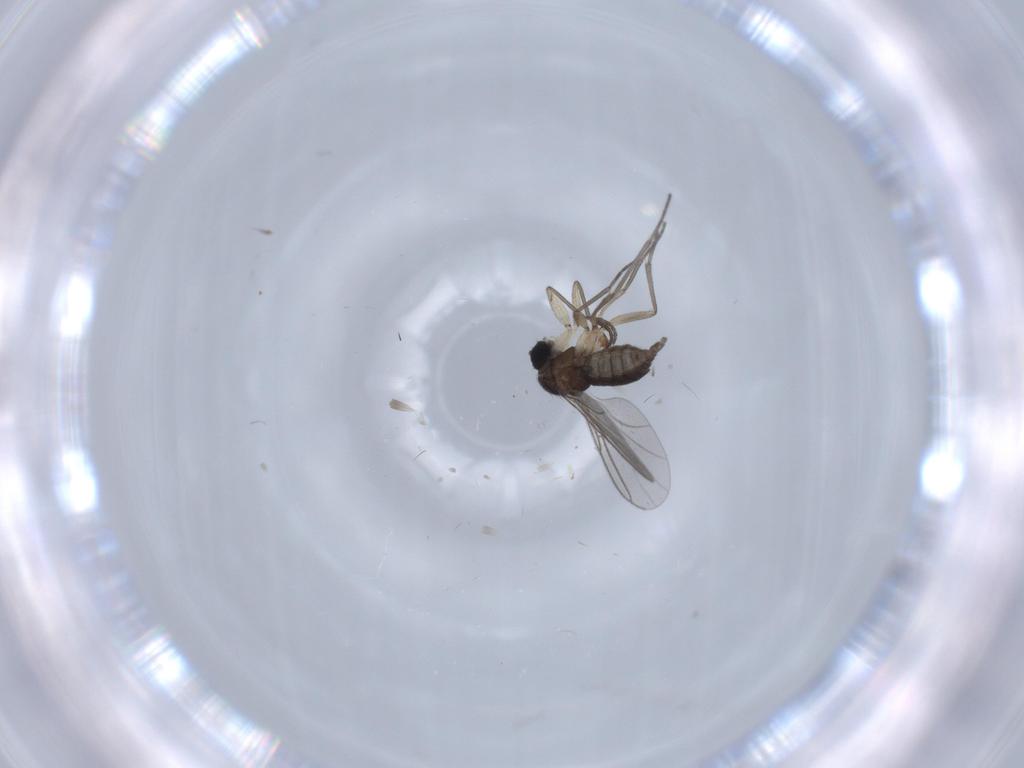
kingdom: Animalia
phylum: Arthropoda
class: Insecta
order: Diptera
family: Sciaridae
